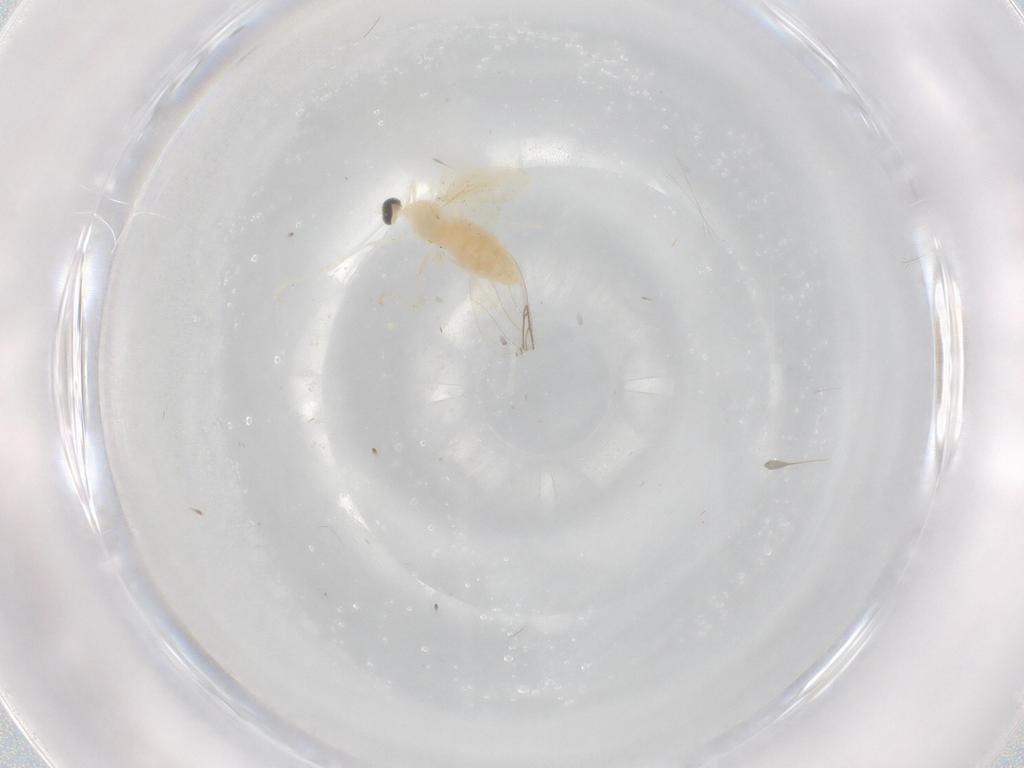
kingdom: Animalia
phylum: Arthropoda
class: Insecta
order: Diptera
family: Cecidomyiidae
